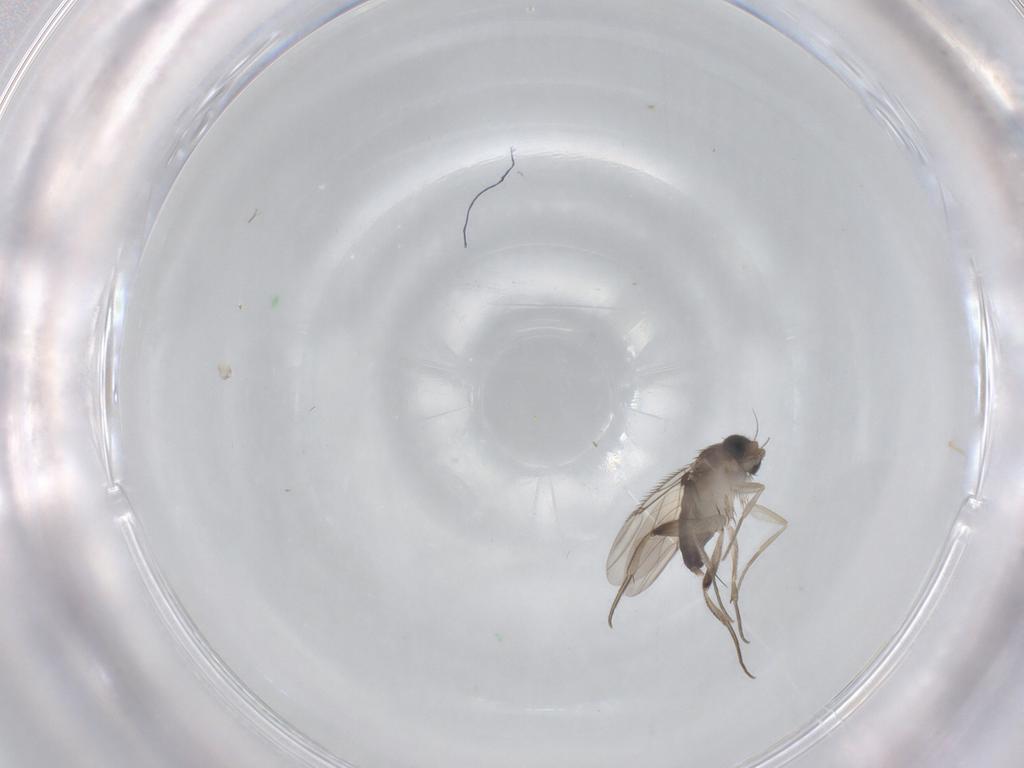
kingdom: Animalia
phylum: Arthropoda
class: Insecta
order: Diptera
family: Phoridae
